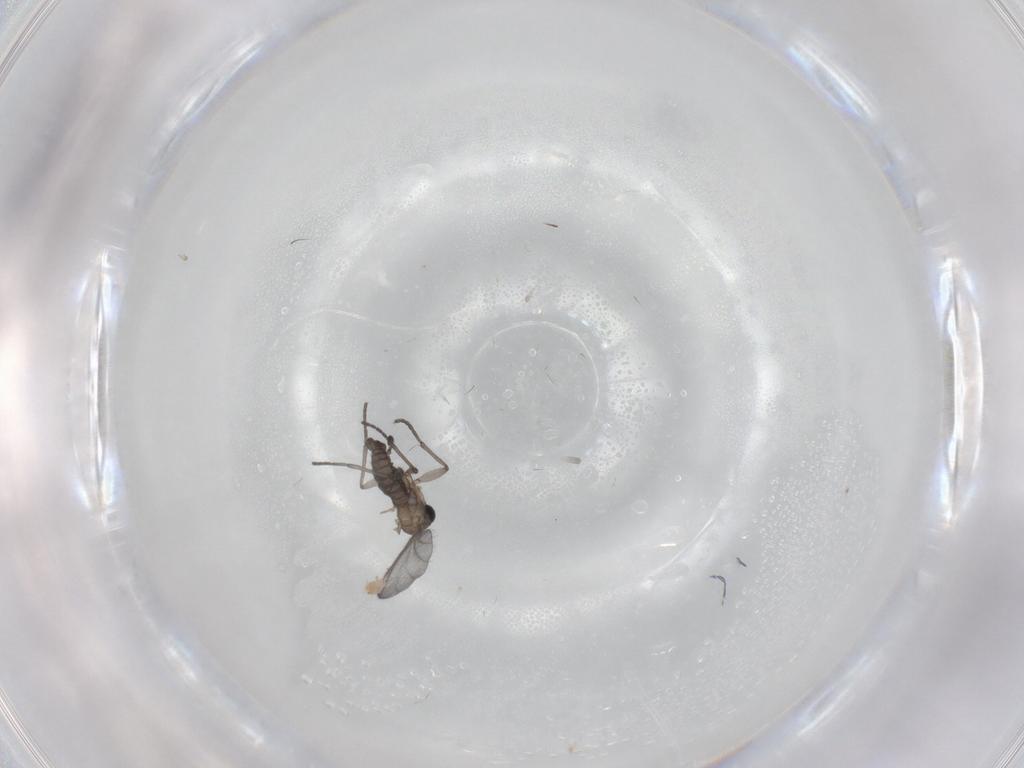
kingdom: Animalia
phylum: Arthropoda
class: Insecta
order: Diptera
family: Sciaridae
